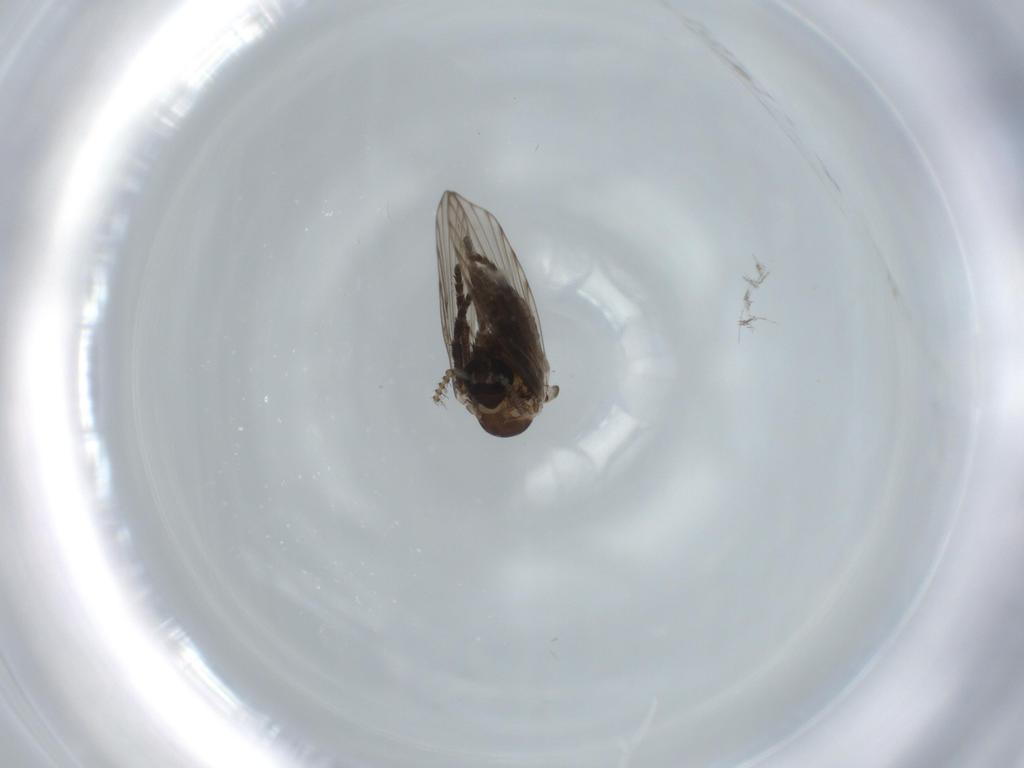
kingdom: Animalia
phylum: Arthropoda
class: Insecta
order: Diptera
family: Psychodidae
